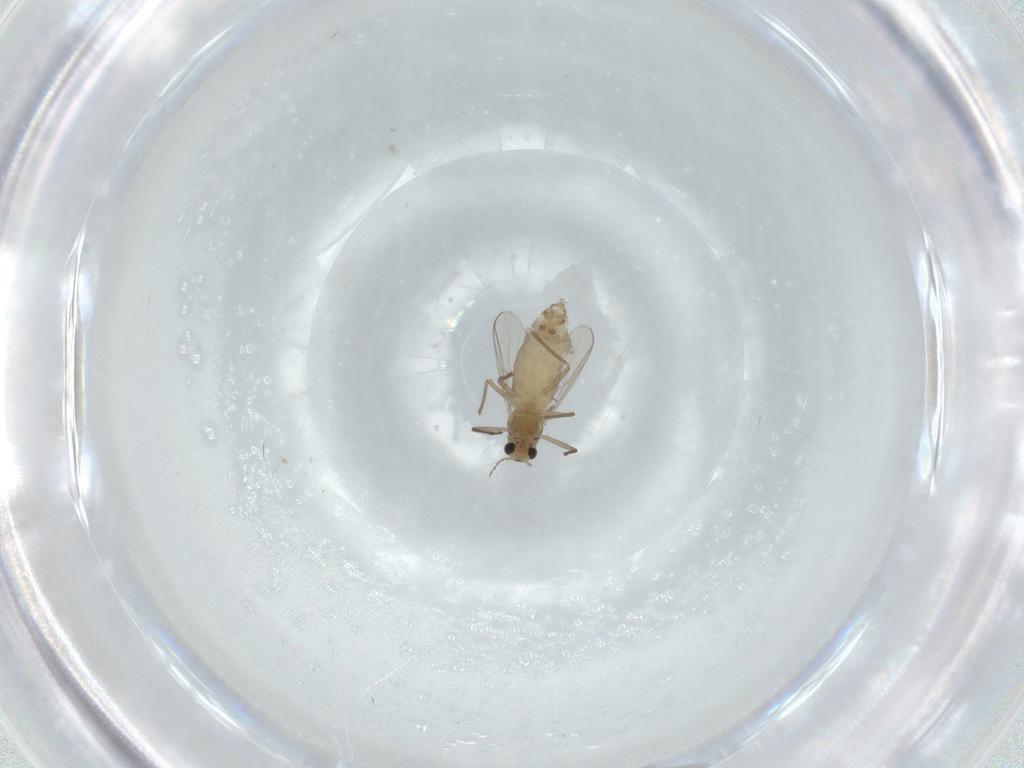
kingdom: Animalia
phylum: Arthropoda
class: Insecta
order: Diptera
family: Chironomidae
